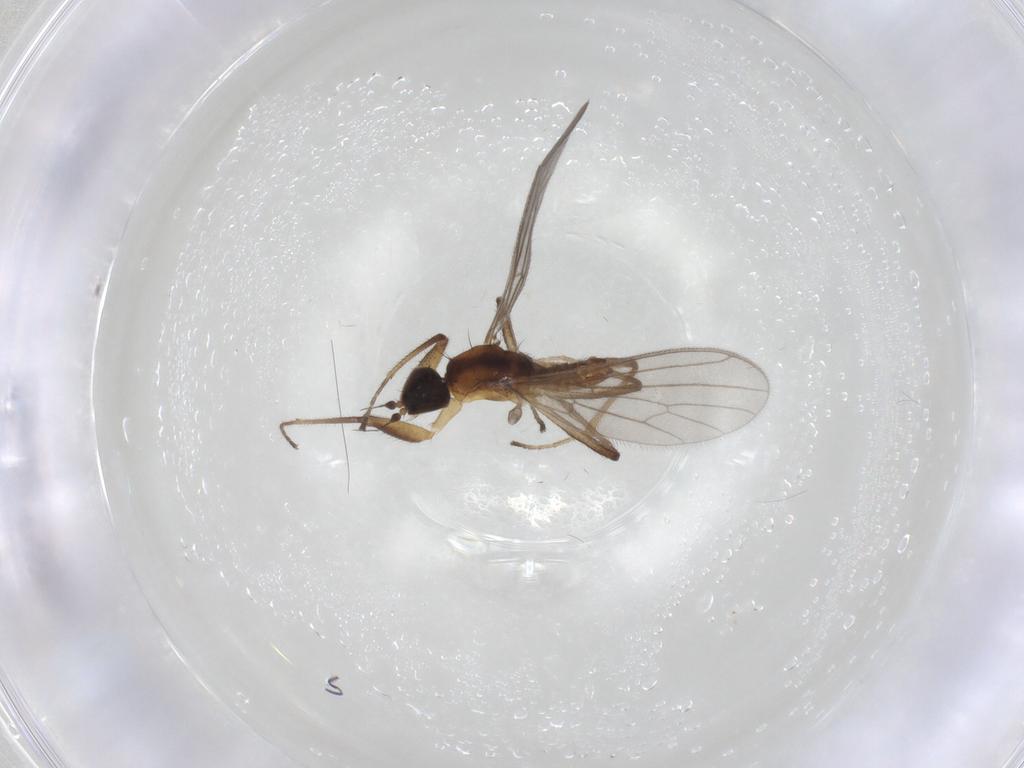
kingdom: Animalia
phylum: Arthropoda
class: Insecta
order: Diptera
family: Empididae
